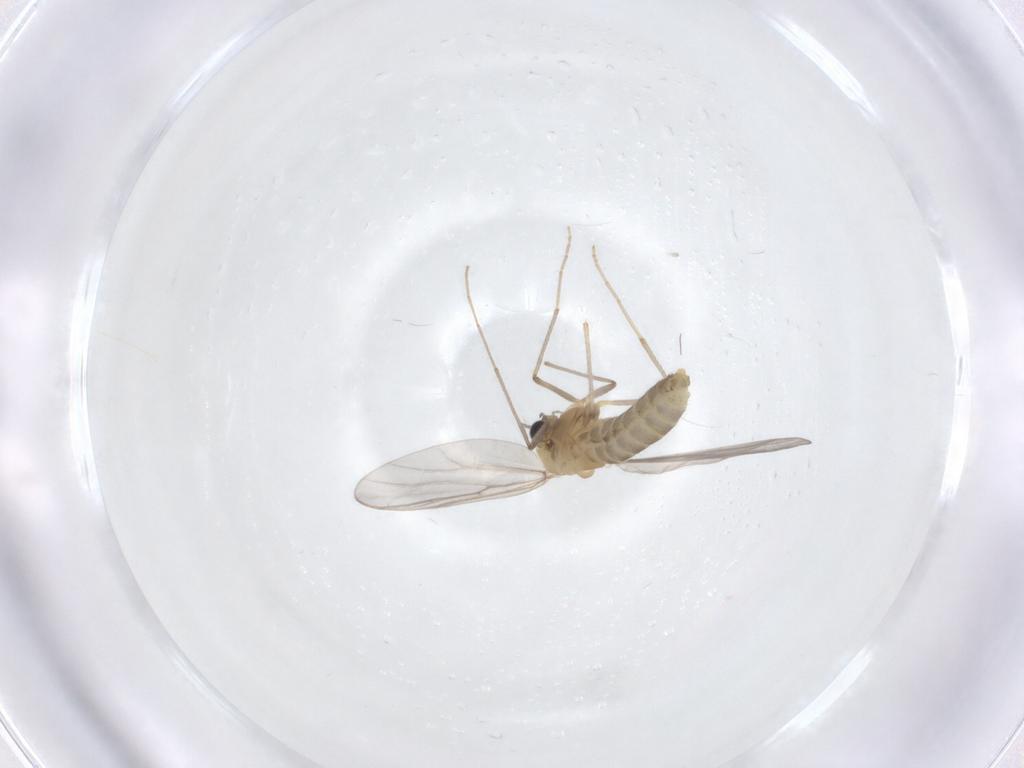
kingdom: Animalia
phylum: Arthropoda
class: Insecta
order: Diptera
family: Chironomidae
